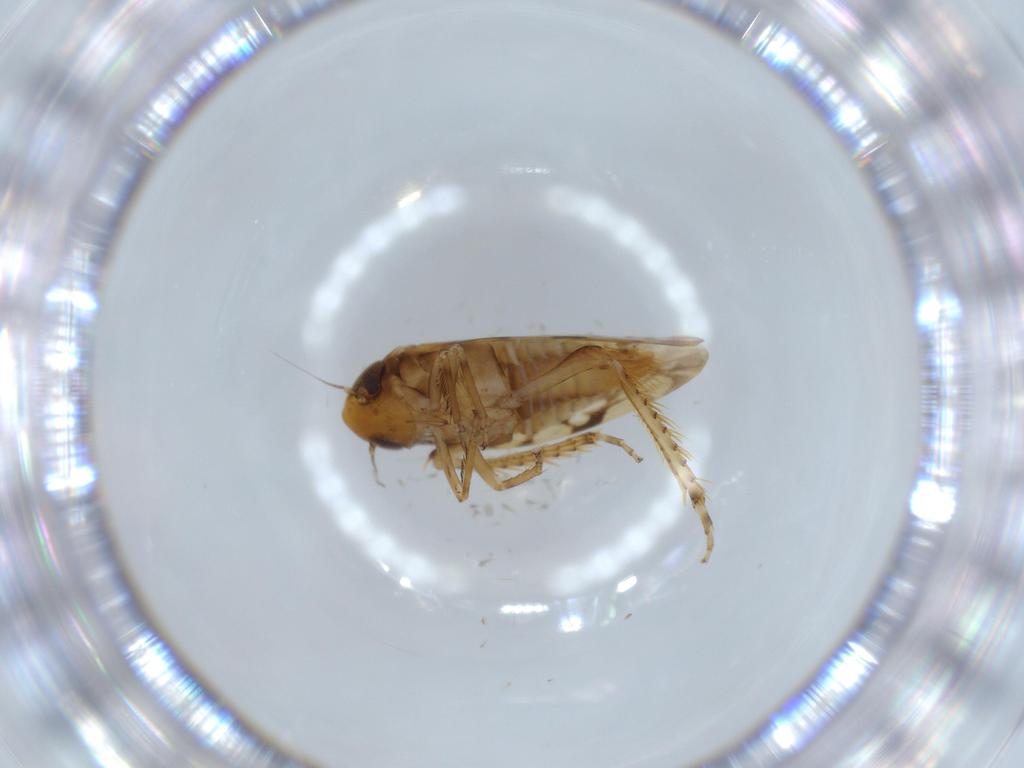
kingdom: Animalia
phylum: Arthropoda
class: Insecta
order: Hemiptera
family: Cicadellidae
